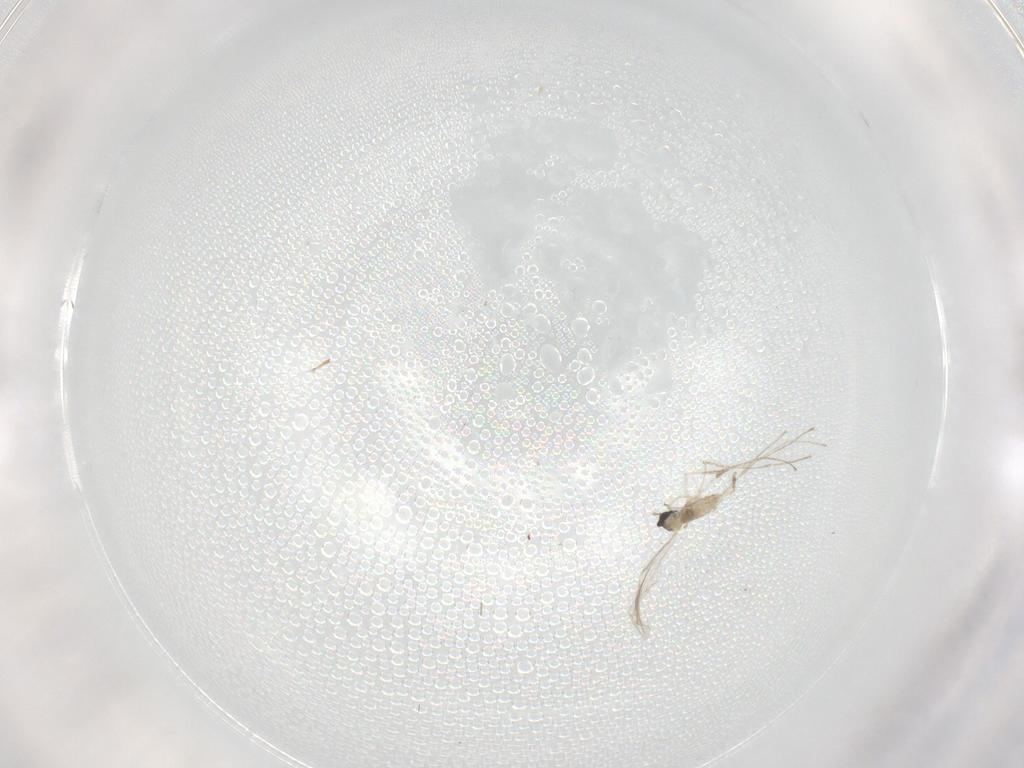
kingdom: Animalia
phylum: Arthropoda
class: Insecta
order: Diptera
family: Cecidomyiidae
